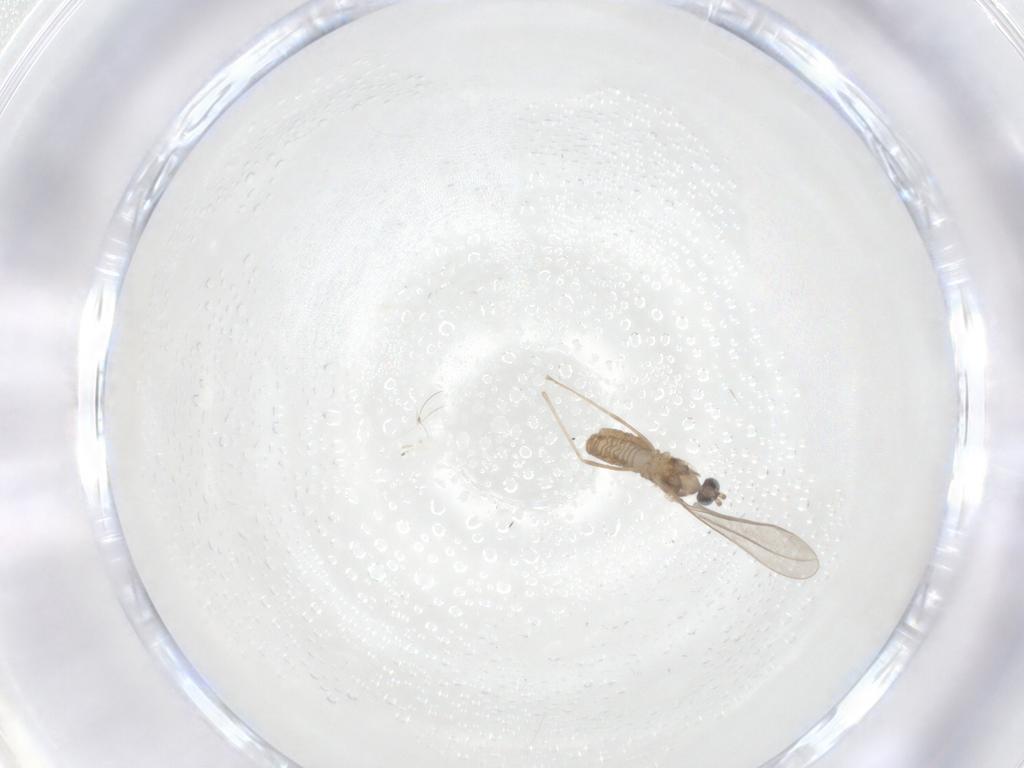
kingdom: Animalia
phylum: Arthropoda
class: Insecta
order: Diptera
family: Cecidomyiidae
